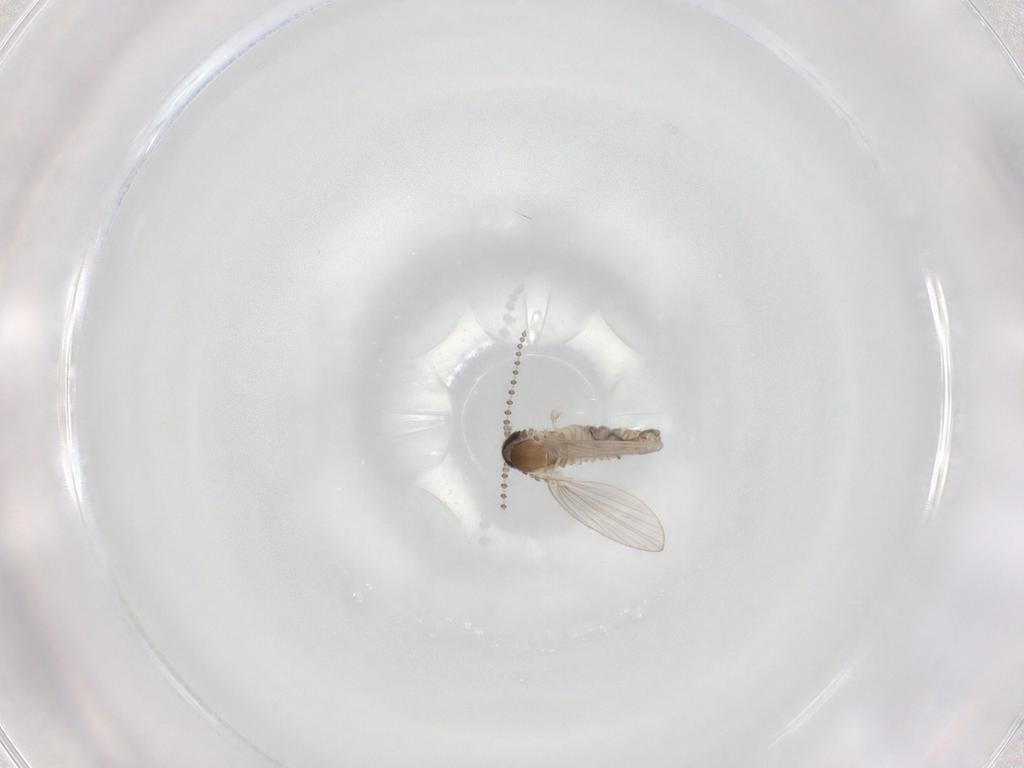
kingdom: Animalia
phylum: Arthropoda
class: Insecta
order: Diptera
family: Psychodidae
